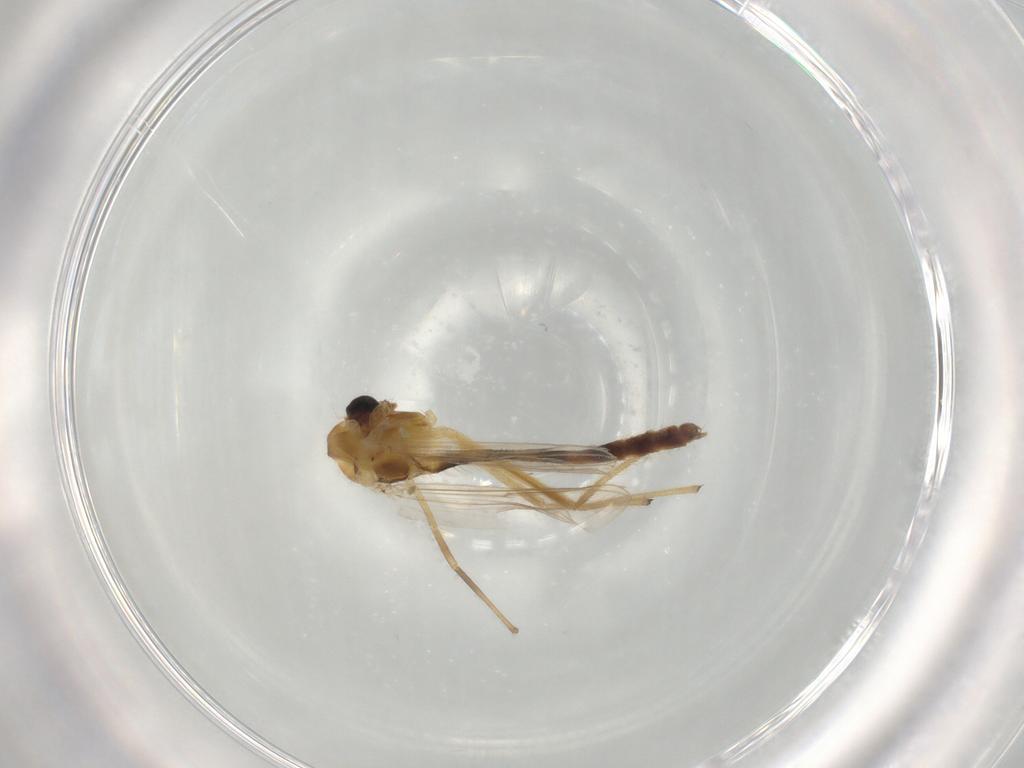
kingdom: Animalia
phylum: Arthropoda
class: Insecta
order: Diptera
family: Chironomidae
